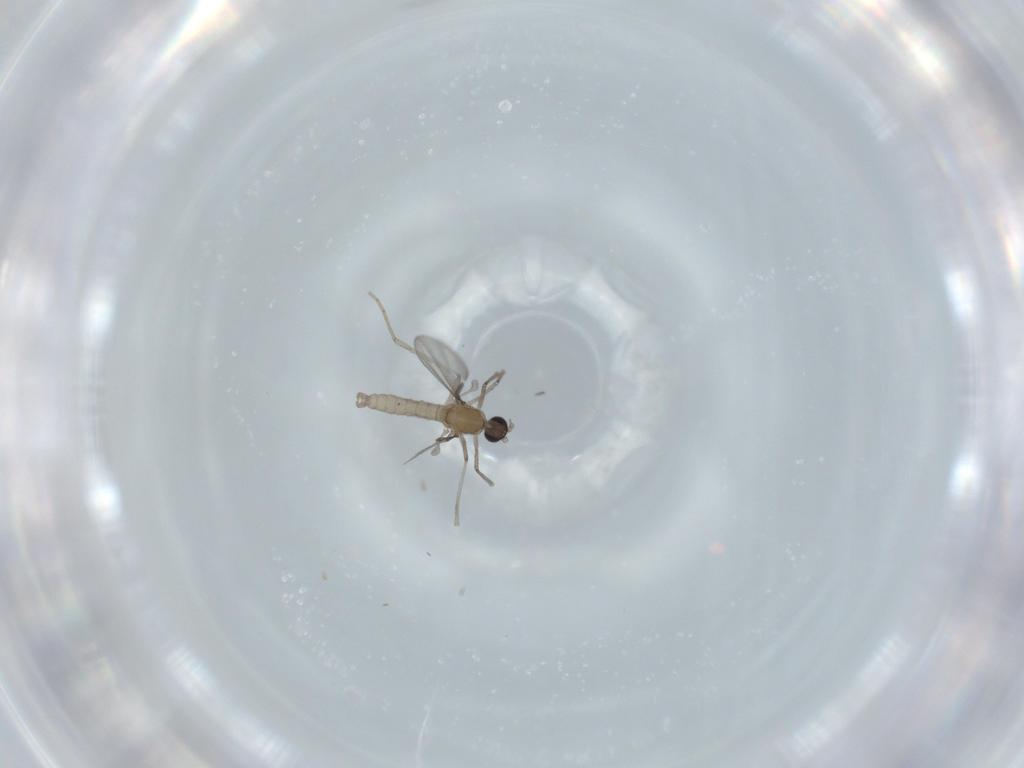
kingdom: Animalia
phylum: Arthropoda
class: Insecta
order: Diptera
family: Cecidomyiidae
